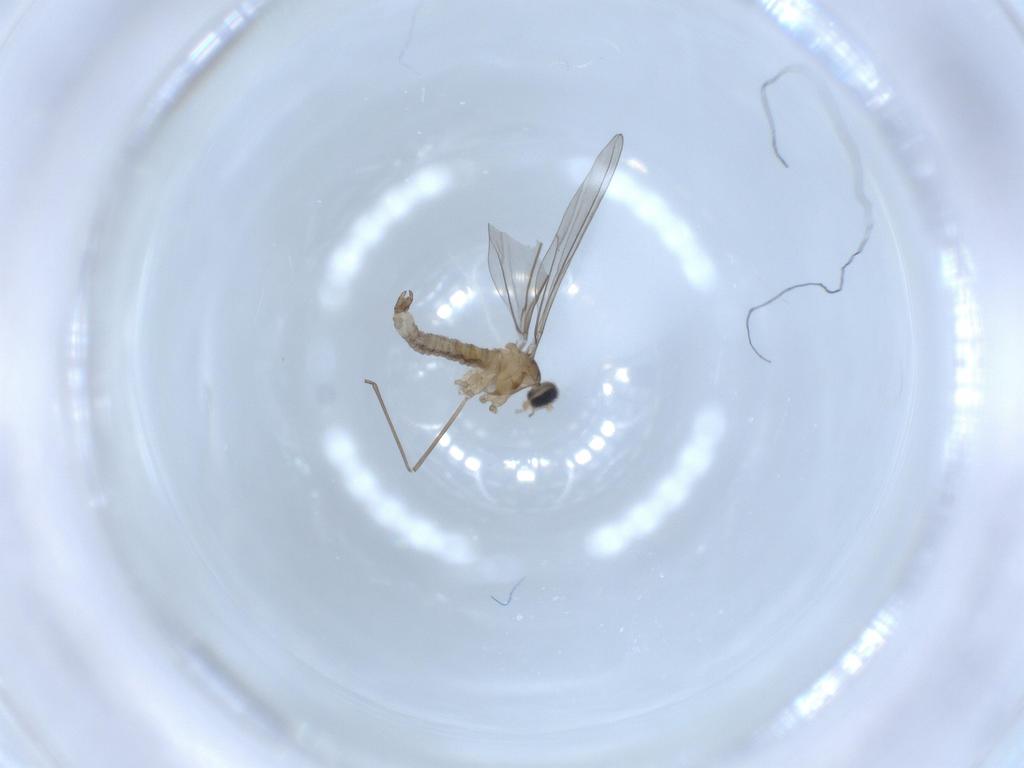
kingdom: Animalia
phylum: Arthropoda
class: Insecta
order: Diptera
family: Cecidomyiidae
